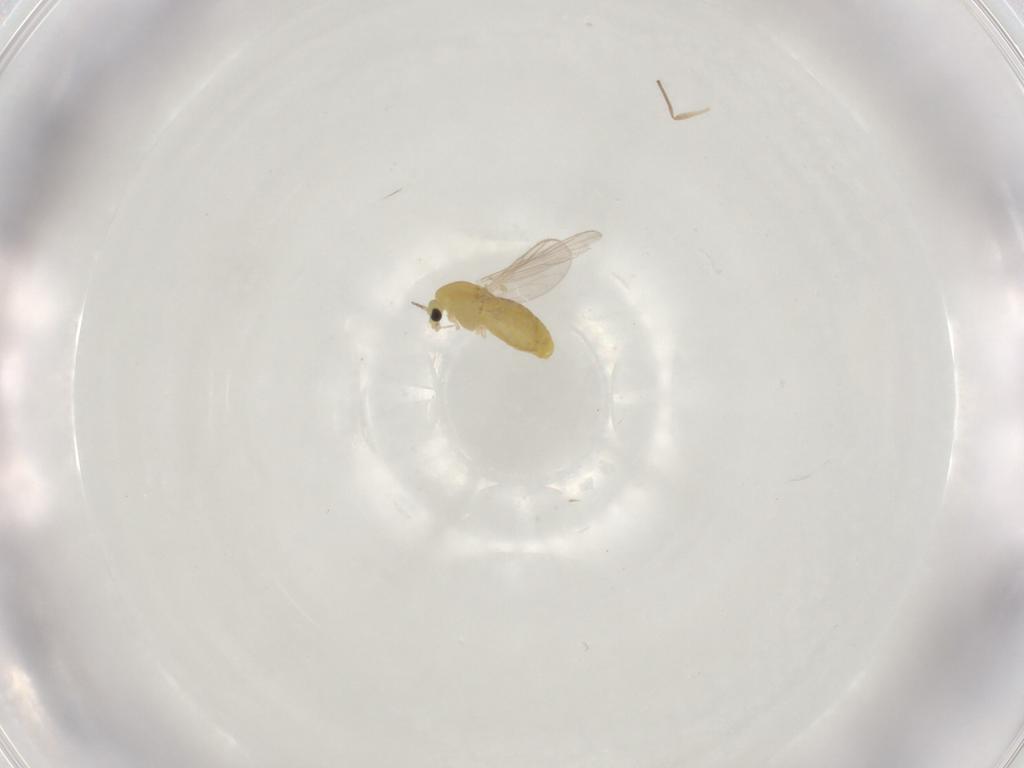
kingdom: Animalia
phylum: Arthropoda
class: Insecta
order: Diptera
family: Chironomidae
